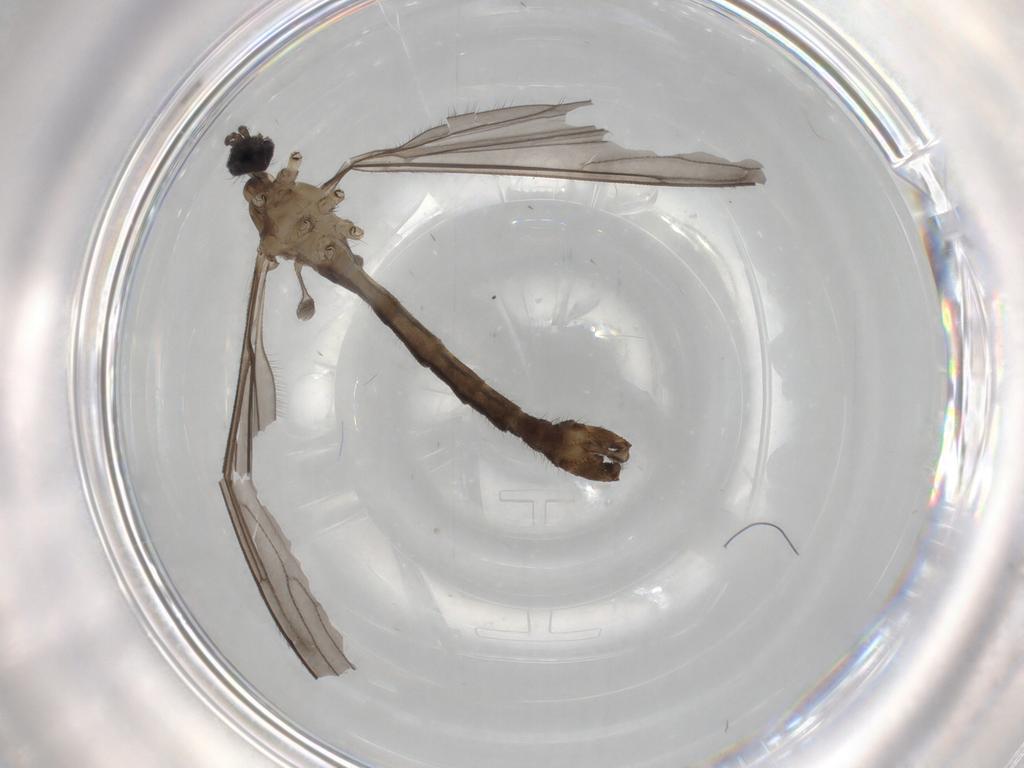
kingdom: Animalia
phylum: Arthropoda
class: Insecta
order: Diptera
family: Limoniidae
